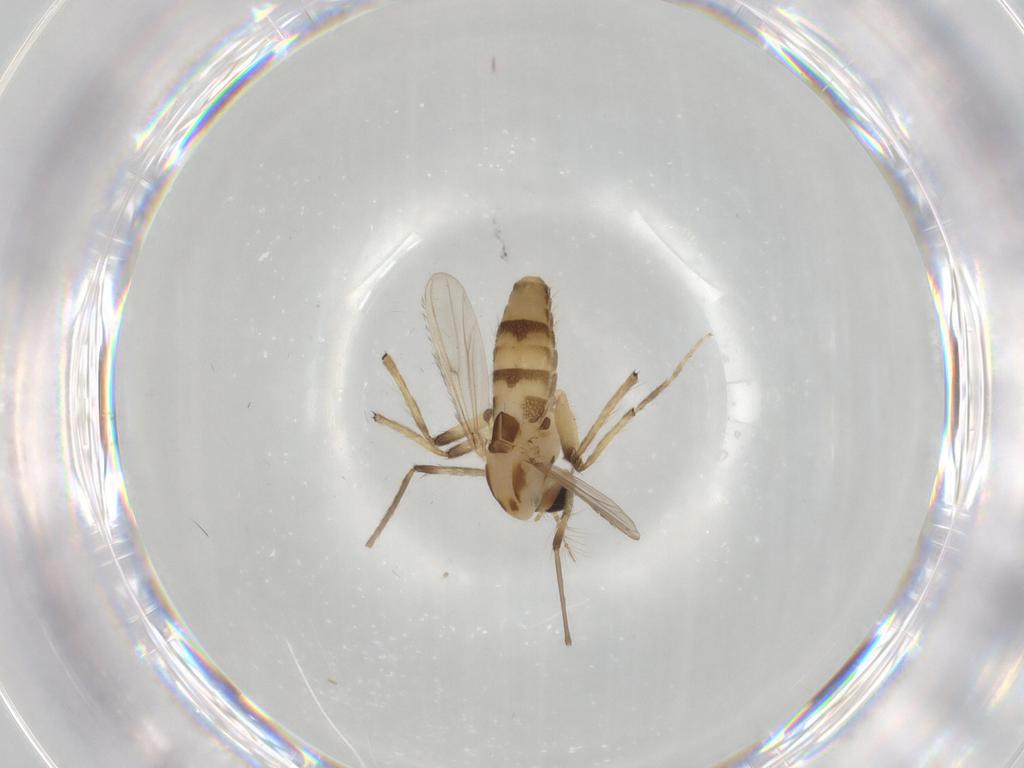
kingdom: Animalia
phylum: Arthropoda
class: Insecta
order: Diptera
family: Chironomidae
